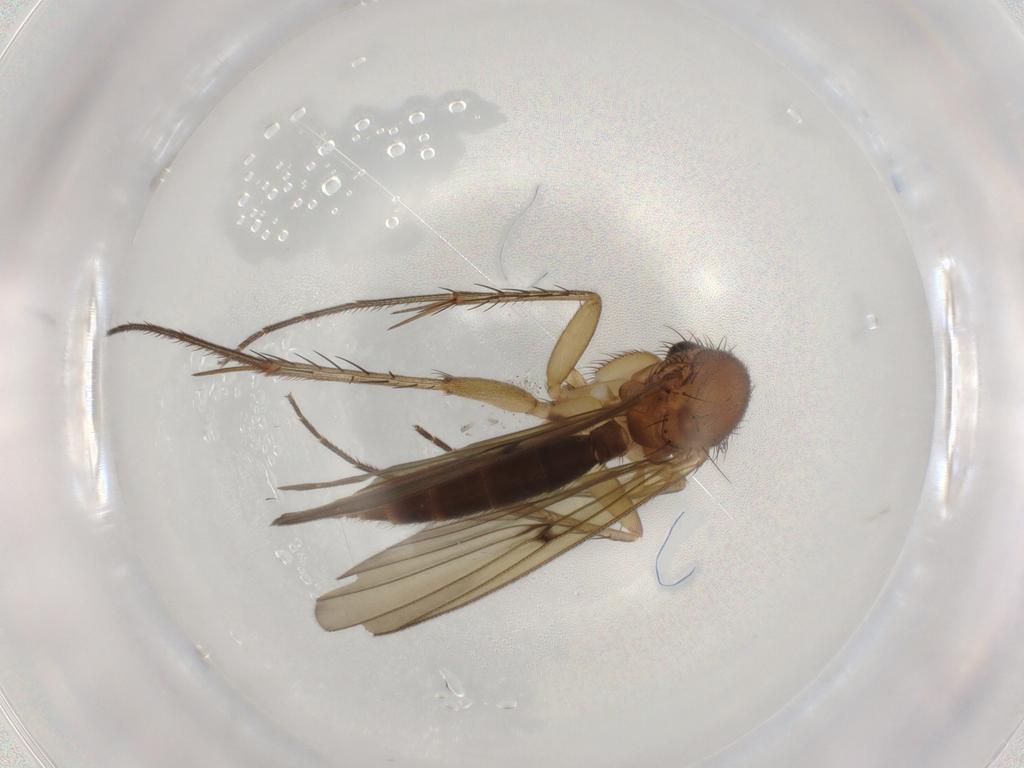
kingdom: Animalia
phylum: Arthropoda
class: Insecta
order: Diptera
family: Mycetophilidae
